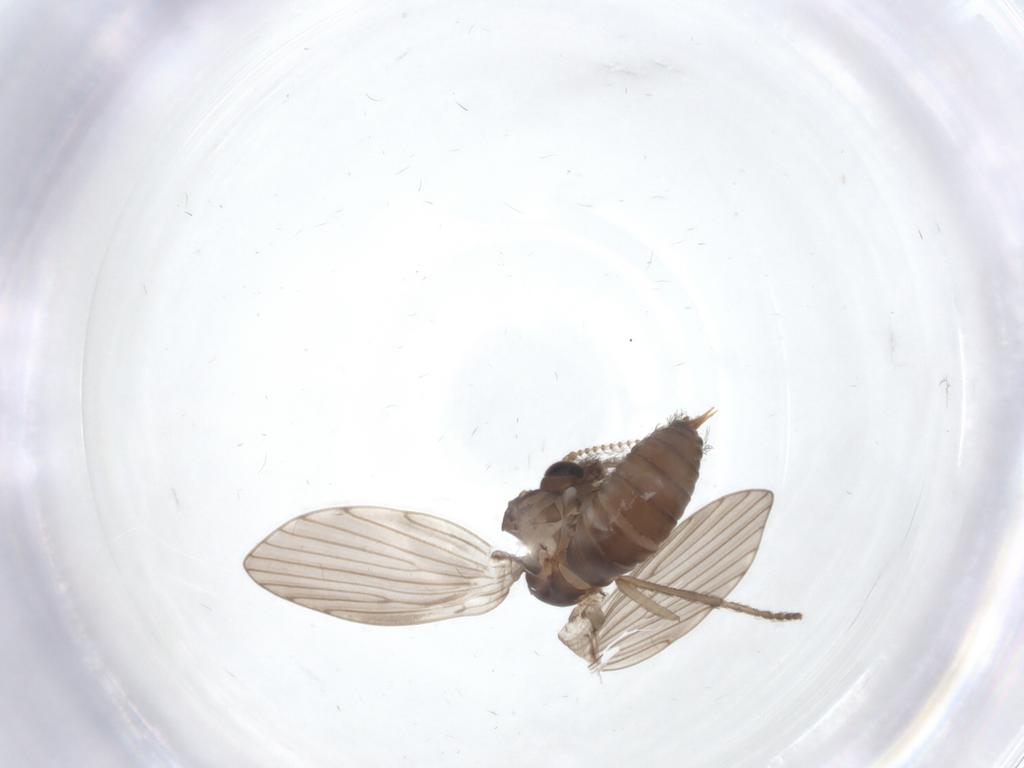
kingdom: Animalia
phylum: Arthropoda
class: Insecta
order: Diptera
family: Psychodidae
